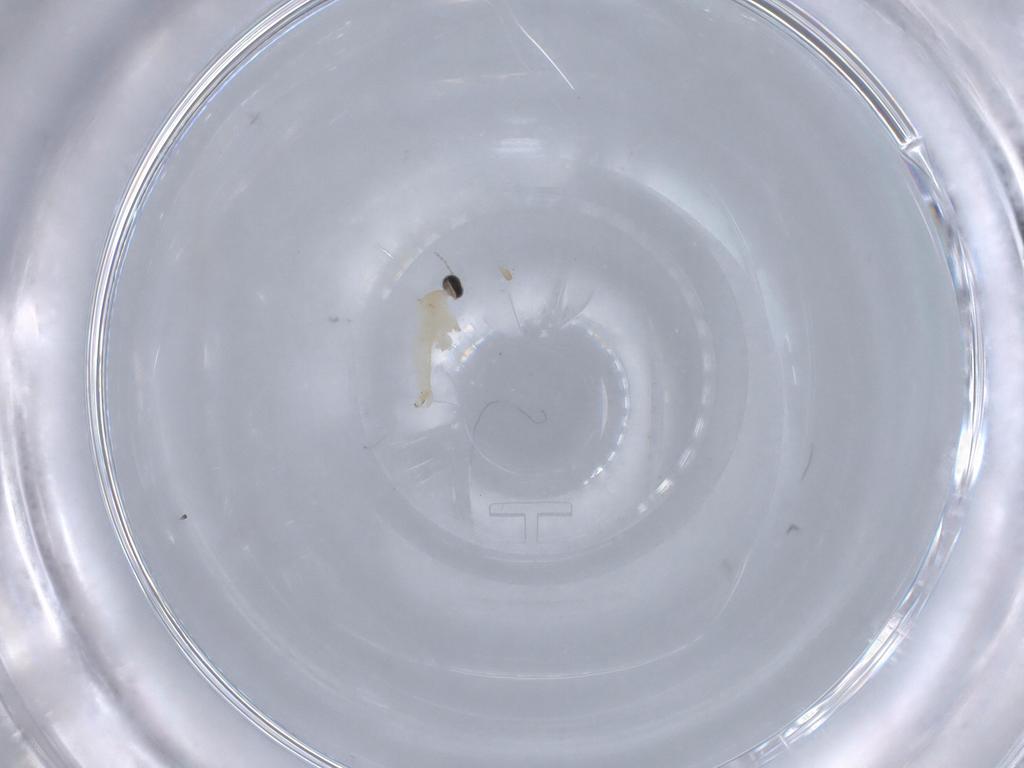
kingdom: Animalia
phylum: Arthropoda
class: Insecta
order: Diptera
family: Cecidomyiidae
